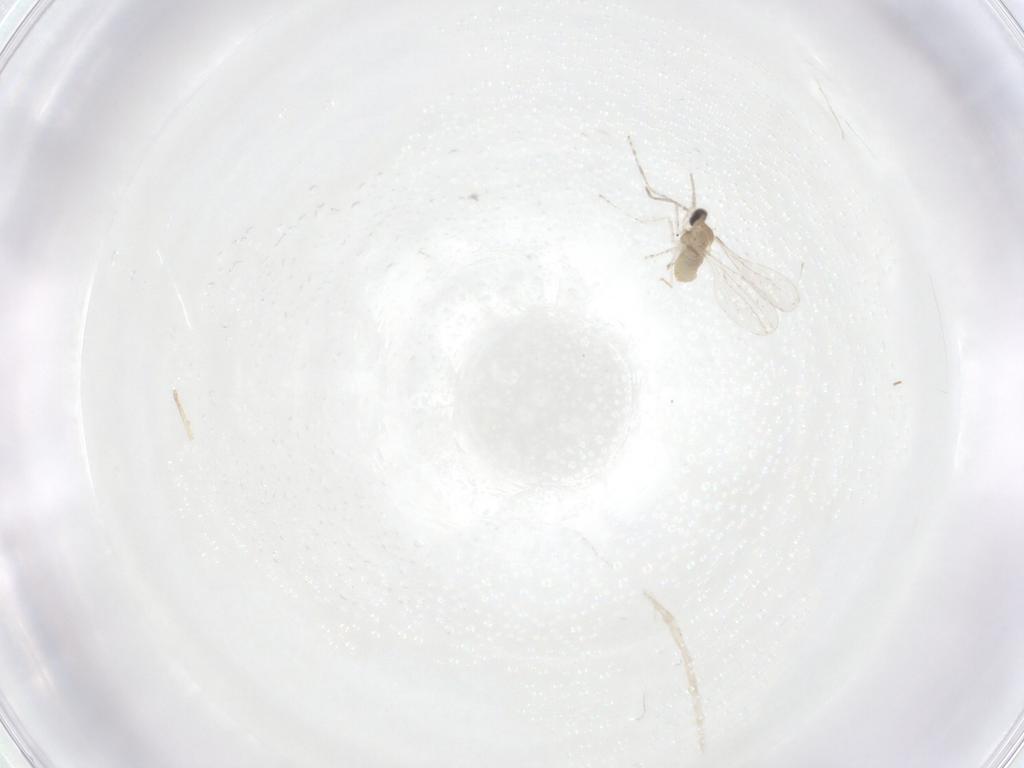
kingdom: Animalia
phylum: Arthropoda
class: Insecta
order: Diptera
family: Cecidomyiidae
